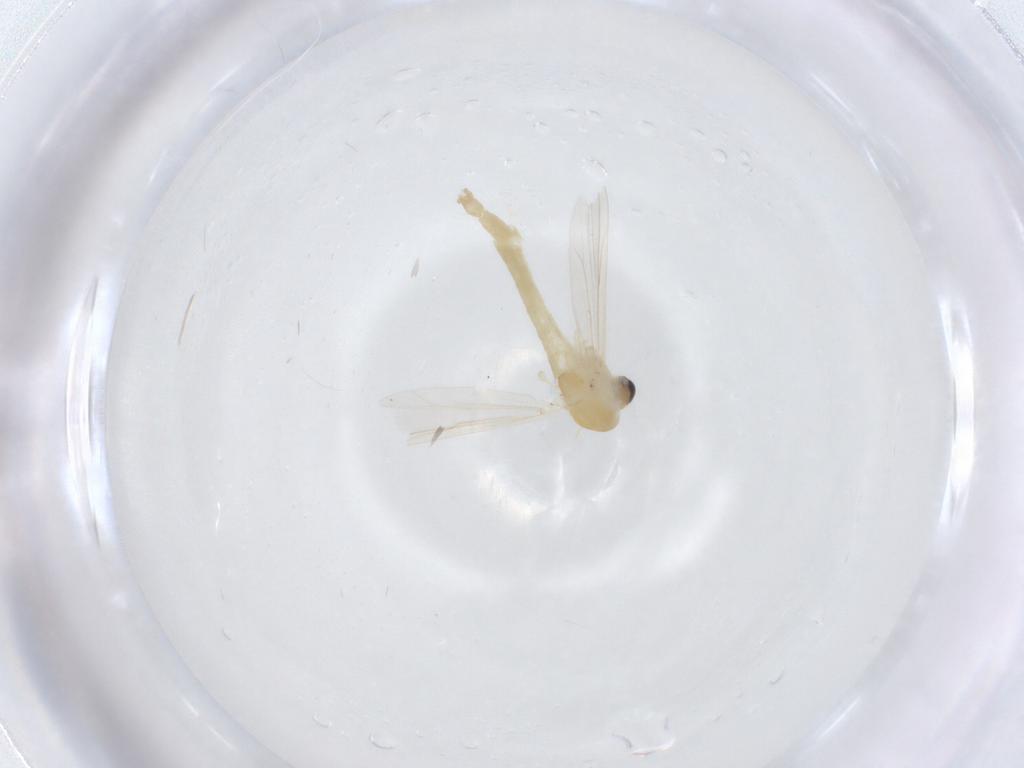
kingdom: Animalia
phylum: Arthropoda
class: Insecta
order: Diptera
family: Chironomidae
